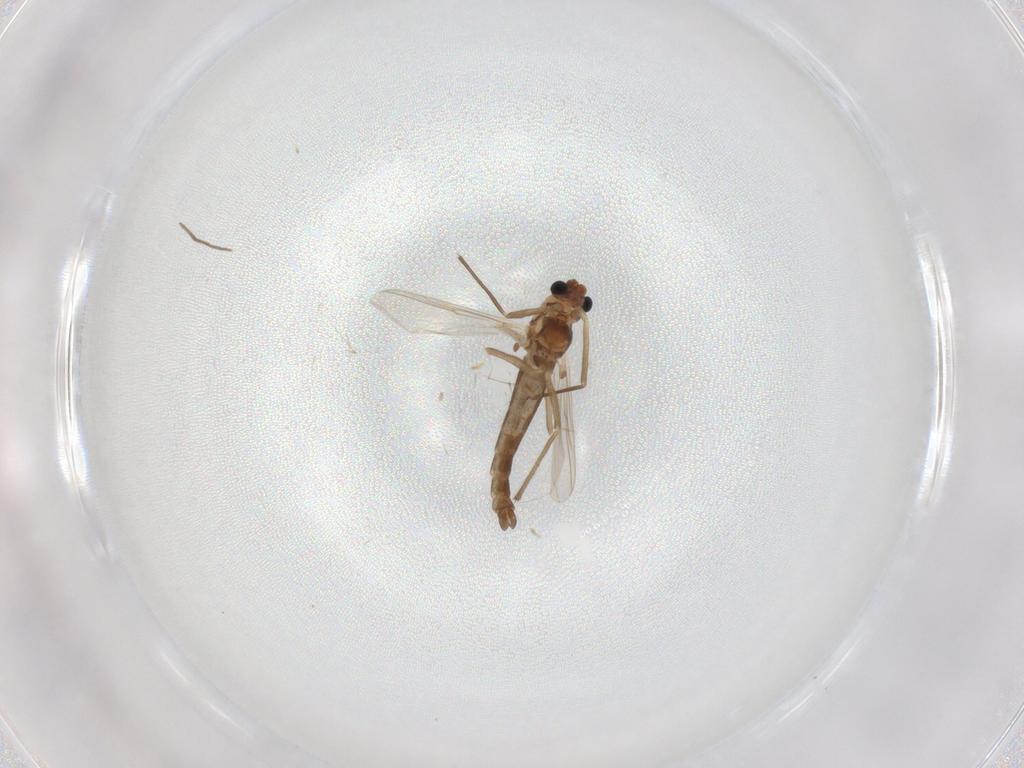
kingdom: Animalia
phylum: Arthropoda
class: Insecta
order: Diptera
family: Chironomidae
